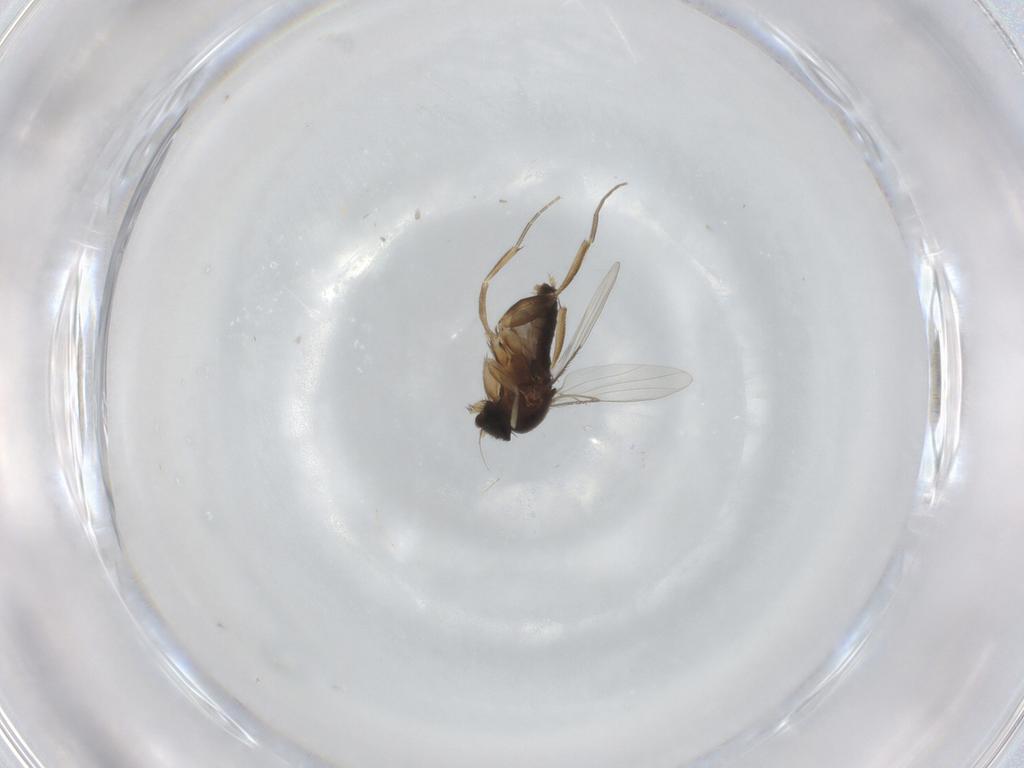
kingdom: Animalia
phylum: Arthropoda
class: Insecta
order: Diptera
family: Phoridae
